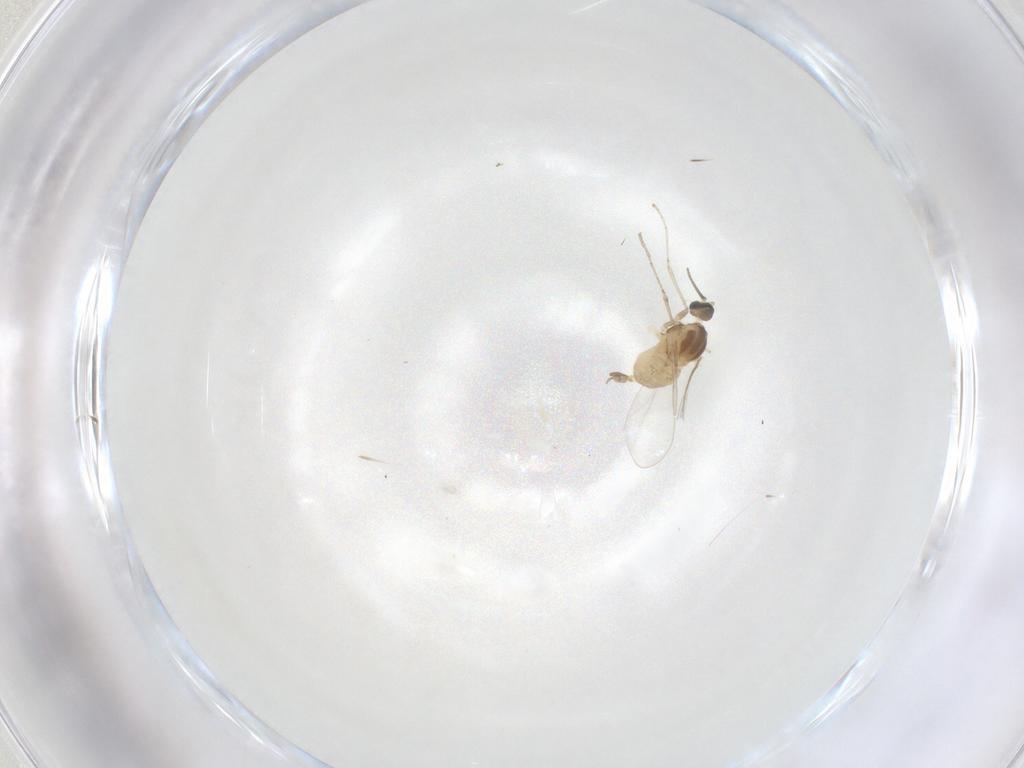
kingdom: Animalia
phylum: Arthropoda
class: Insecta
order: Diptera
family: Cecidomyiidae
